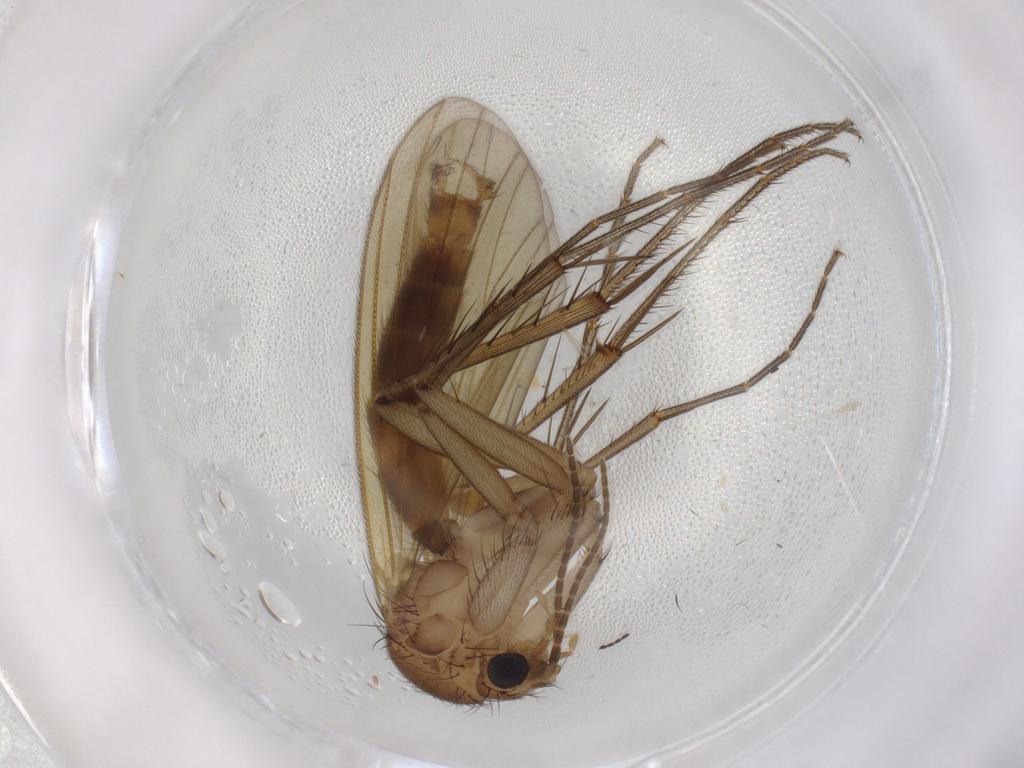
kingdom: Animalia
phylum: Arthropoda
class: Insecta
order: Diptera
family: Mycetophilidae
